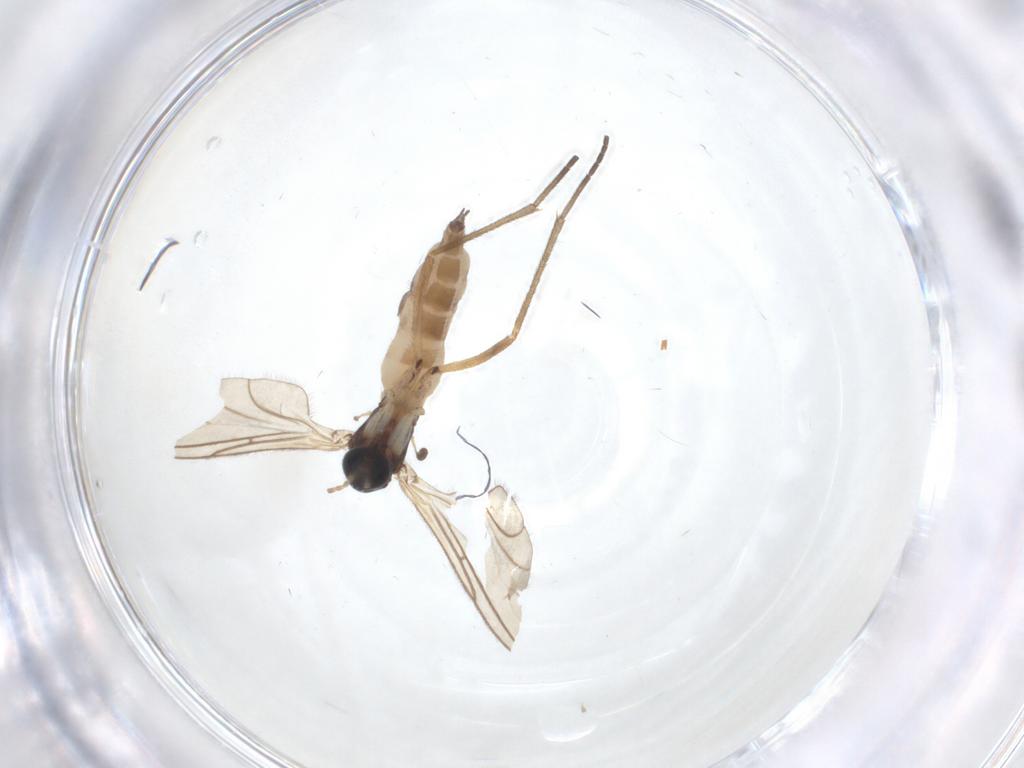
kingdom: Animalia
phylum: Arthropoda
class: Insecta
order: Diptera
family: Sciaridae
